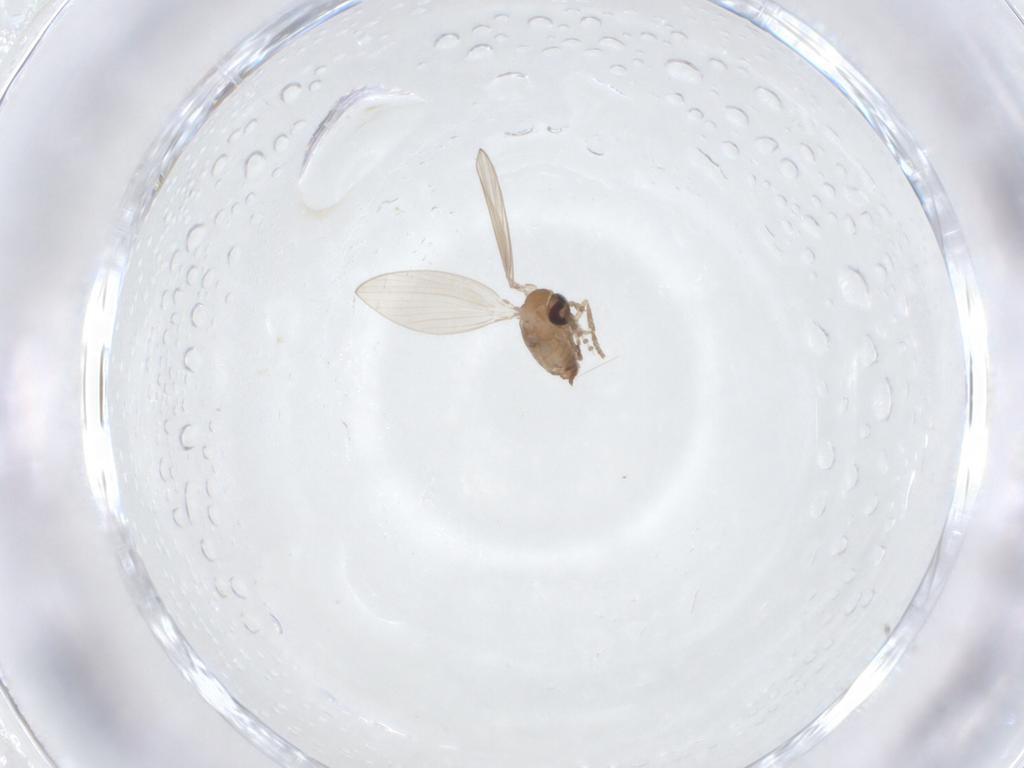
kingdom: Animalia
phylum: Arthropoda
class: Insecta
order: Diptera
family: Psychodidae
